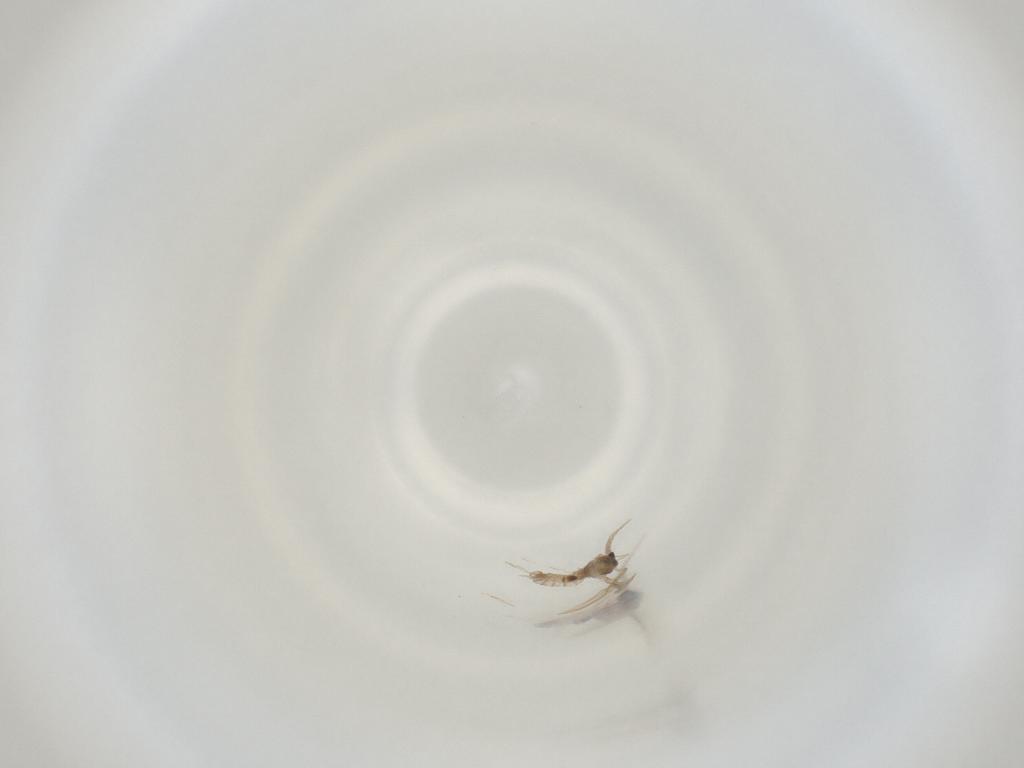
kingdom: Animalia
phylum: Arthropoda
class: Insecta
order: Diptera
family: Cecidomyiidae
